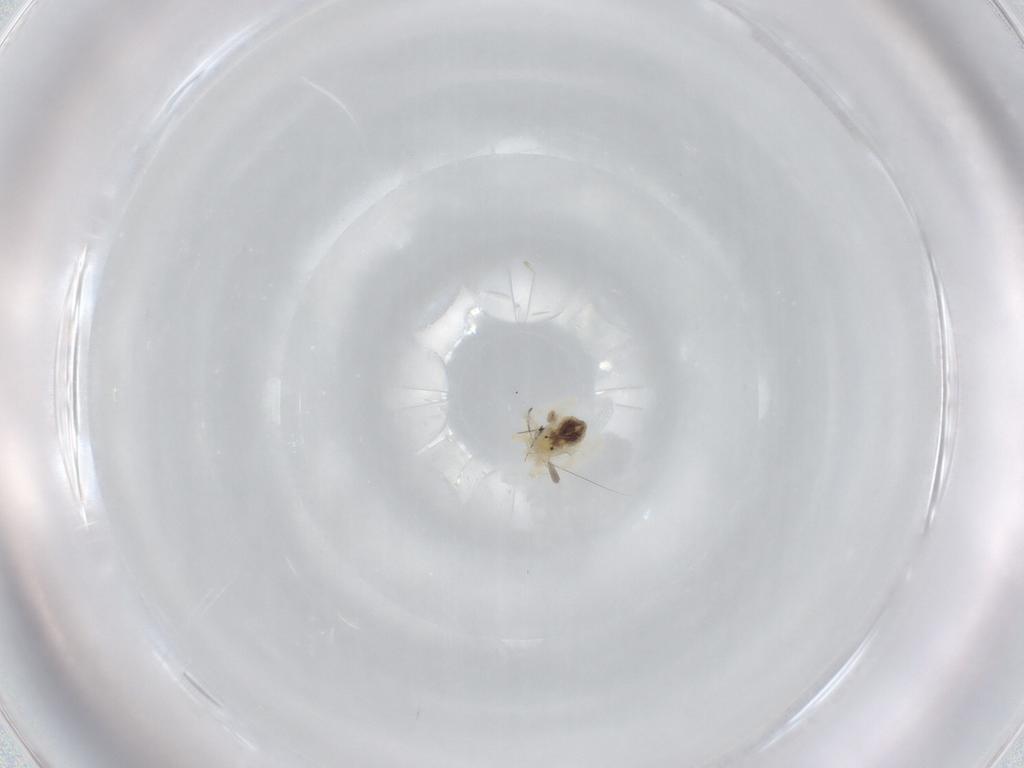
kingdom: Animalia
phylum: Arthropoda
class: Arachnida
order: Trombidiformes
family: Anystidae
